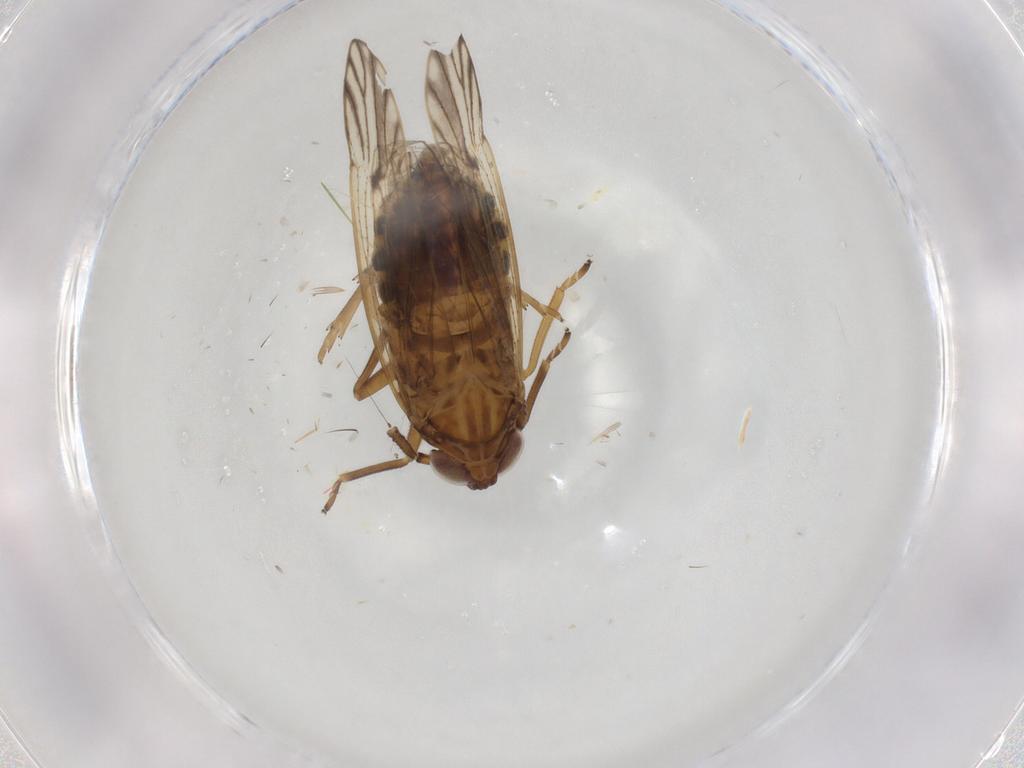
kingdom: Animalia
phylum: Arthropoda
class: Insecta
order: Hemiptera
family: Delphacidae
